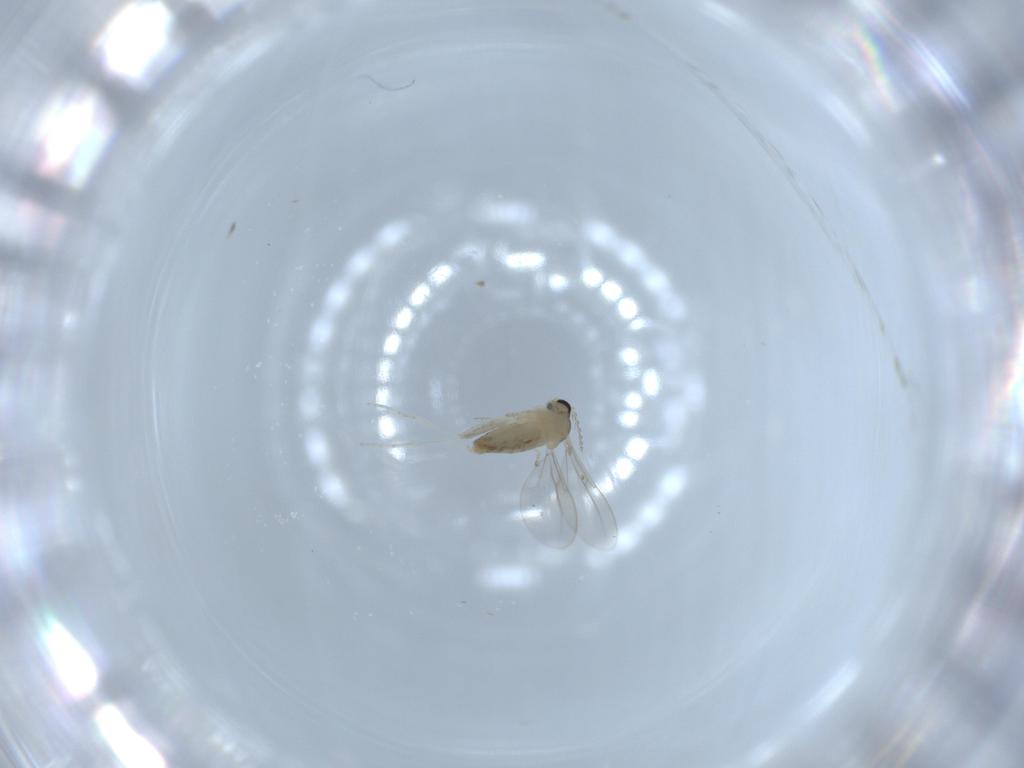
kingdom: Animalia
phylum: Arthropoda
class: Insecta
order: Diptera
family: Cecidomyiidae
